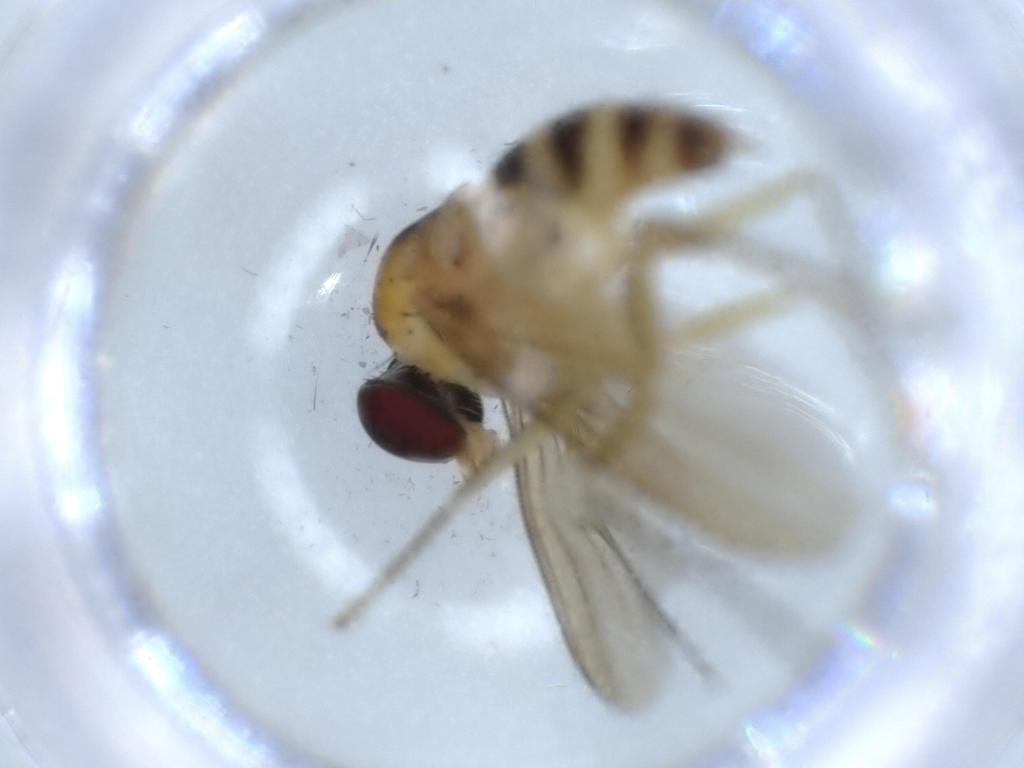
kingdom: Animalia
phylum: Arthropoda
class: Insecta
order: Diptera
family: Dolichopodidae
